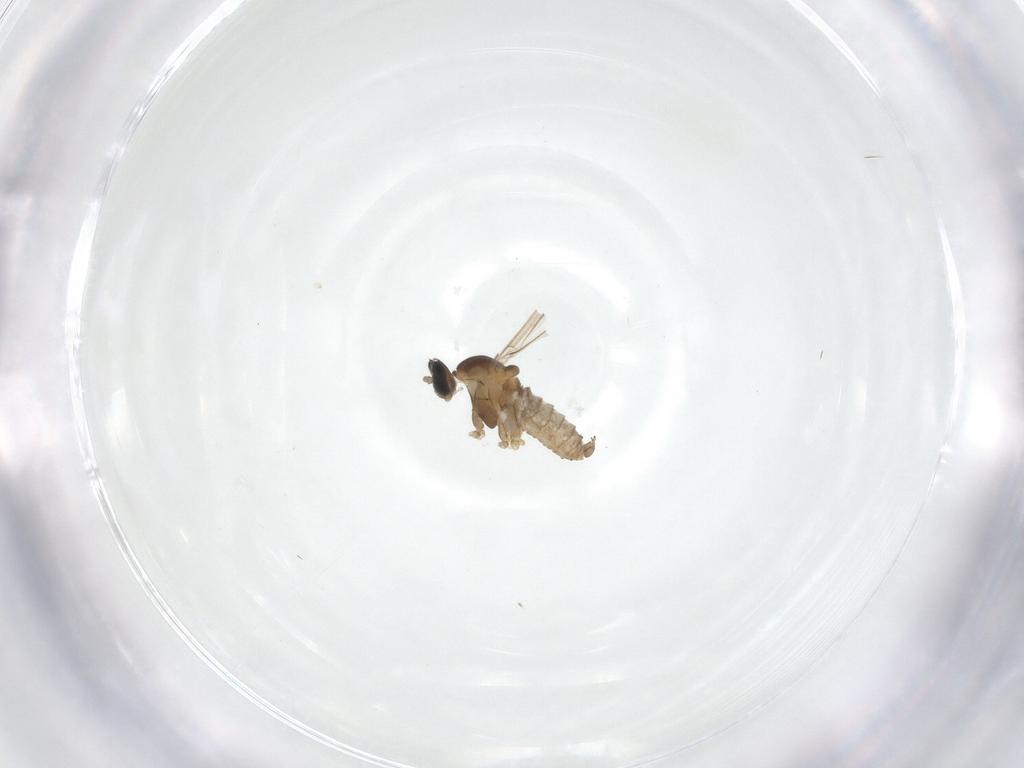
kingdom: Animalia
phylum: Arthropoda
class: Insecta
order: Diptera
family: Cecidomyiidae
